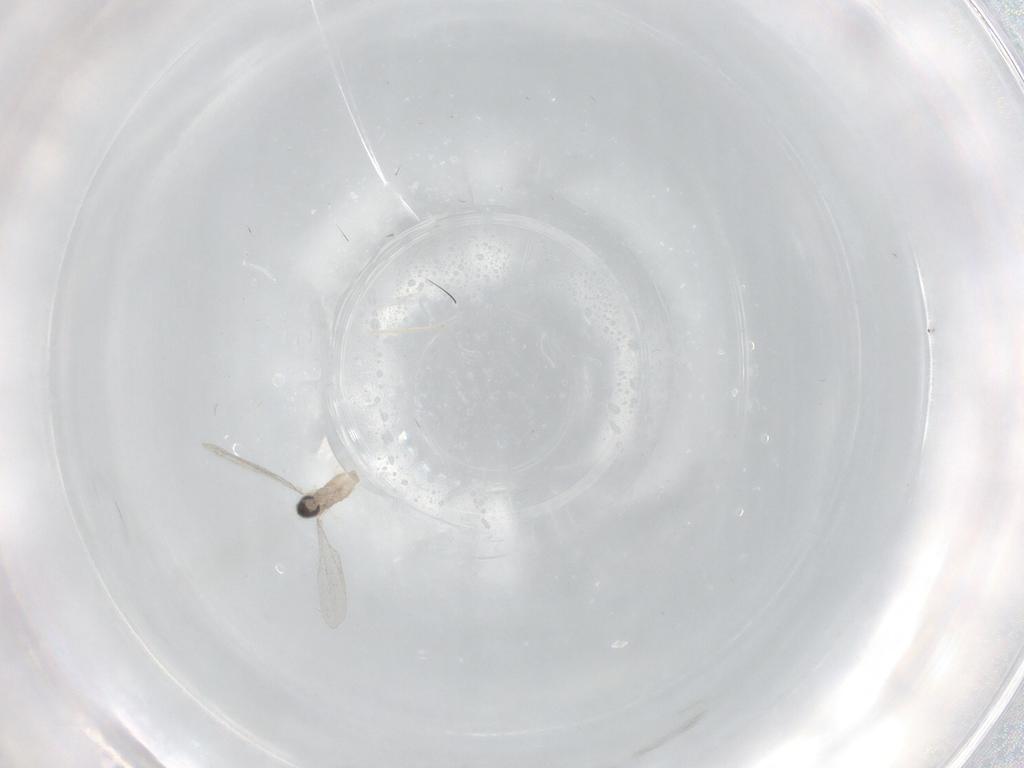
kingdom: Animalia
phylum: Arthropoda
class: Insecta
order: Diptera
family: Cecidomyiidae
